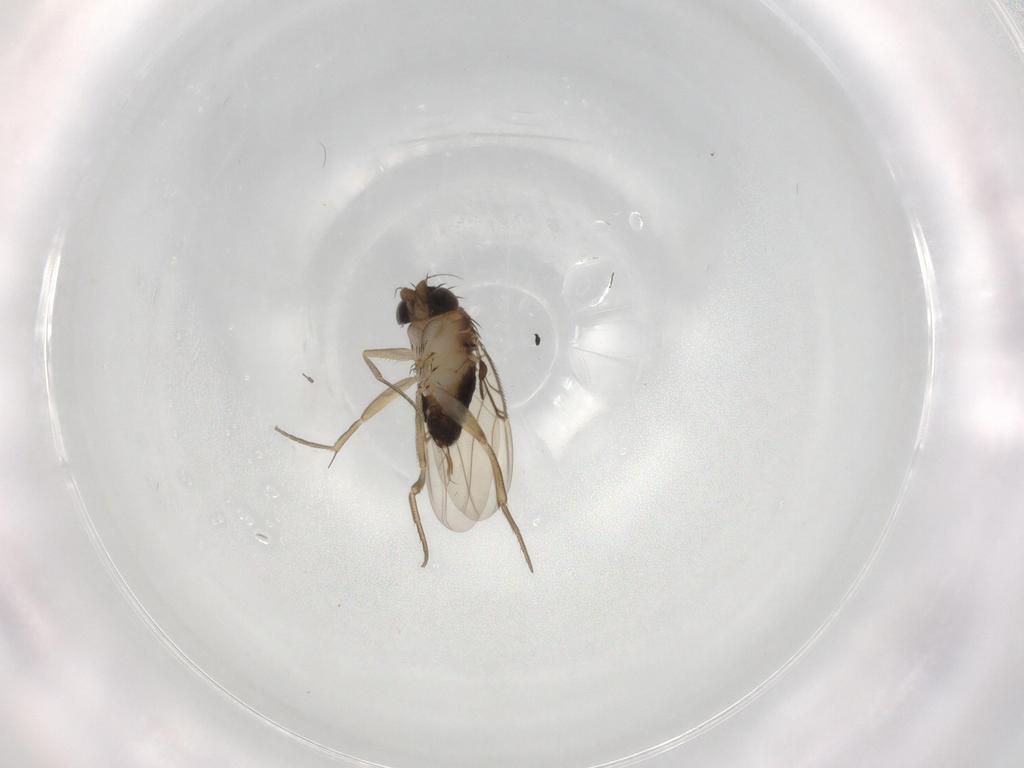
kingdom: Animalia
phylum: Arthropoda
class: Insecta
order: Diptera
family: Phoridae
